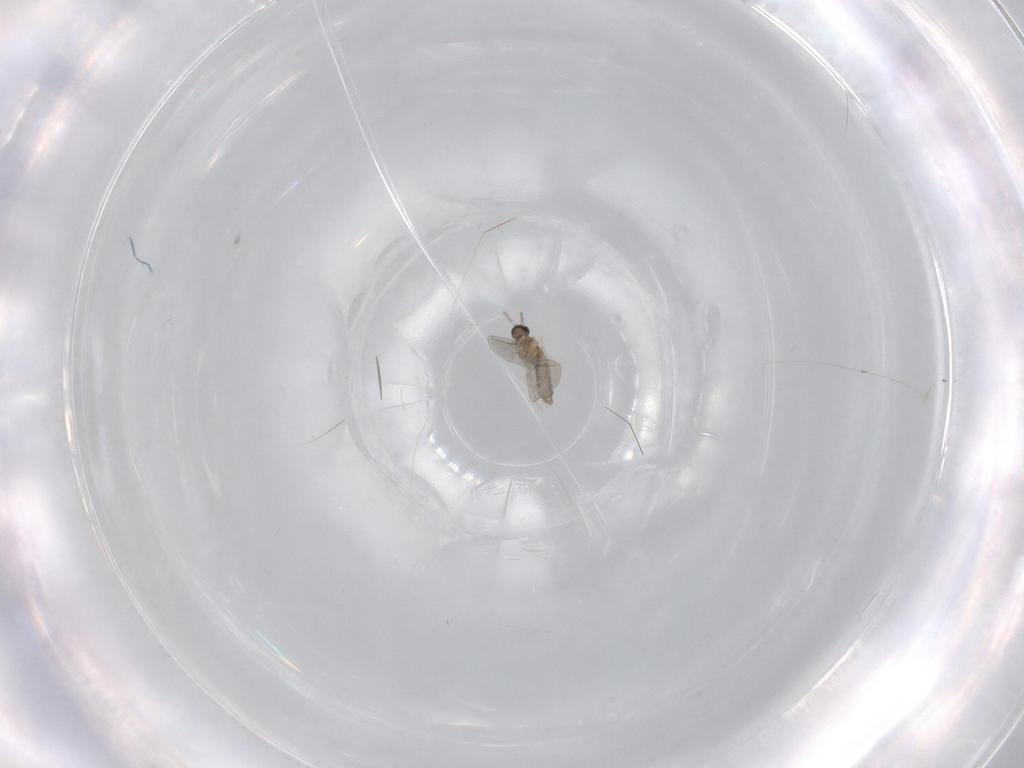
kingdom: Animalia
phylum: Arthropoda
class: Insecta
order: Diptera
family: Cecidomyiidae
